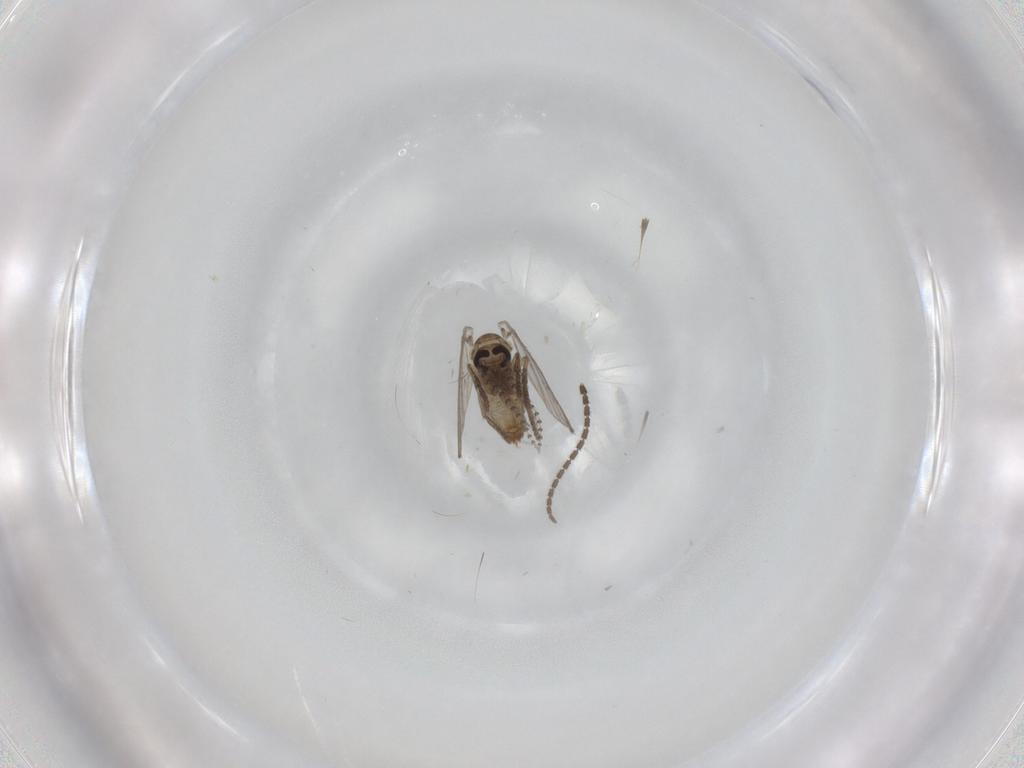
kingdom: Animalia
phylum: Arthropoda
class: Insecta
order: Diptera
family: Psychodidae
